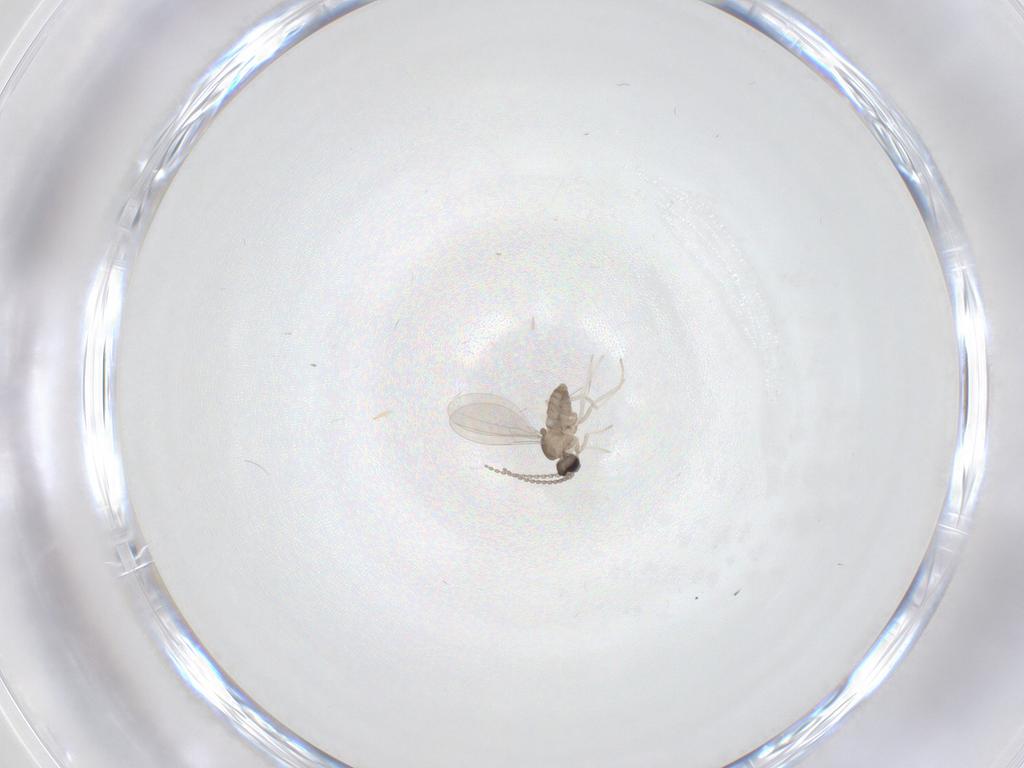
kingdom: Animalia
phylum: Arthropoda
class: Insecta
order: Diptera
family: Cecidomyiidae
